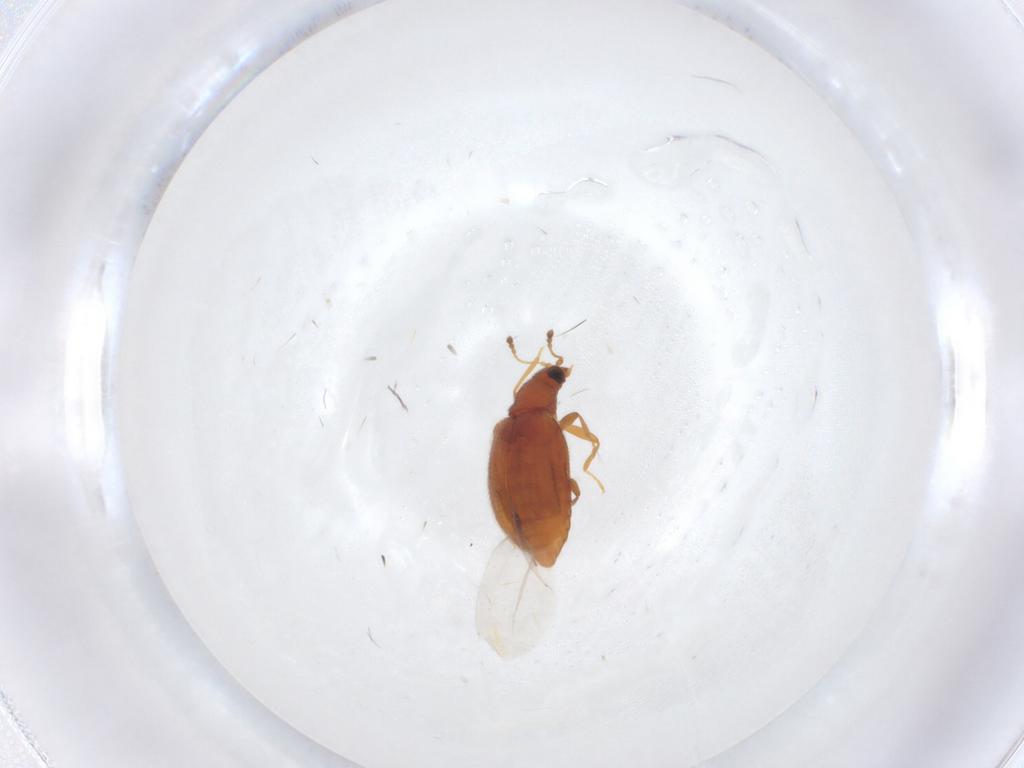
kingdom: Animalia
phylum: Arthropoda
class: Insecta
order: Coleoptera
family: Latridiidae
